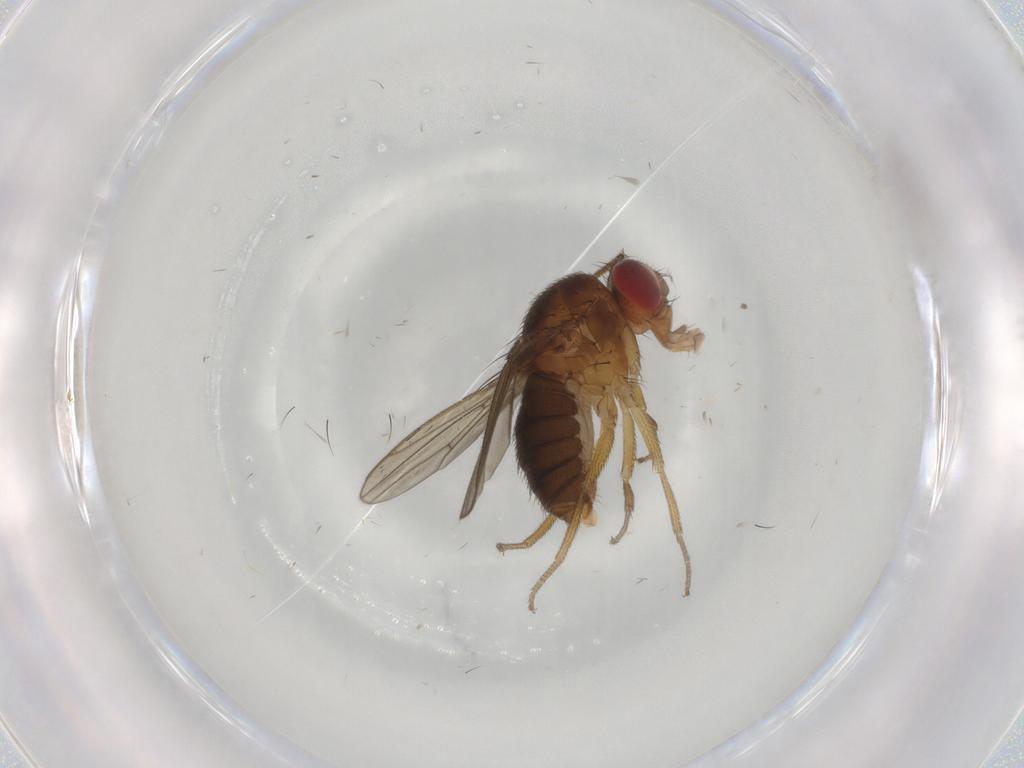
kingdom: Animalia
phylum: Arthropoda
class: Insecta
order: Diptera
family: Drosophilidae
